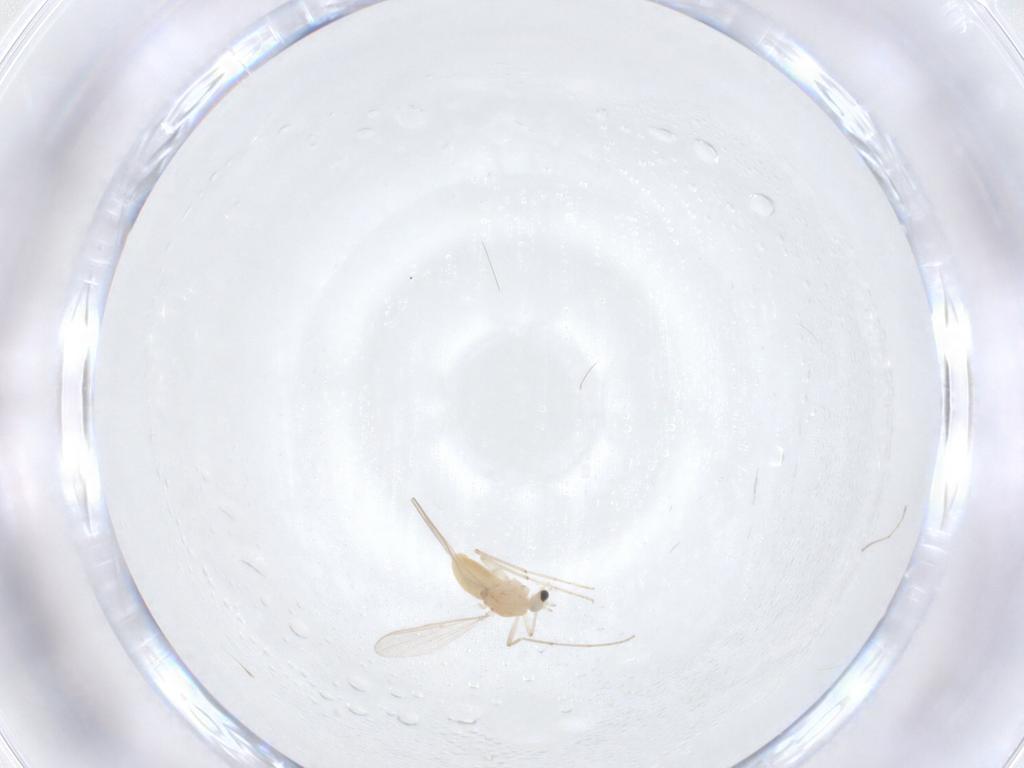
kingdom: Animalia
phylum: Arthropoda
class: Insecta
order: Diptera
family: Chironomidae
